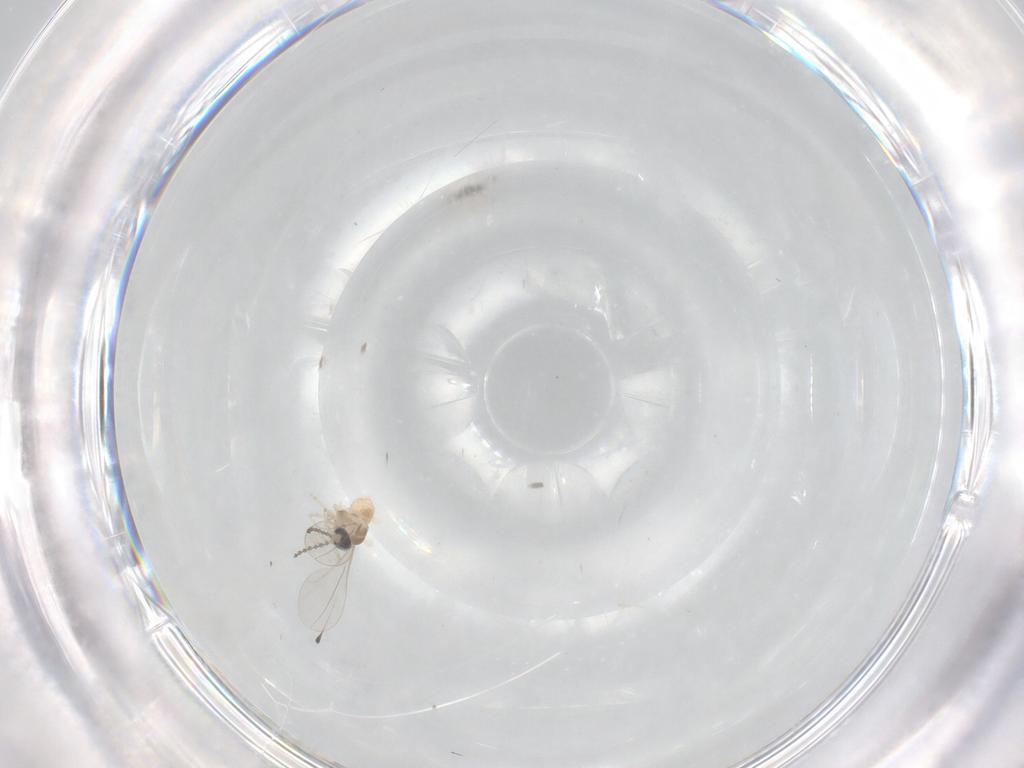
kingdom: Animalia
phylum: Arthropoda
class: Insecta
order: Diptera
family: Cecidomyiidae
